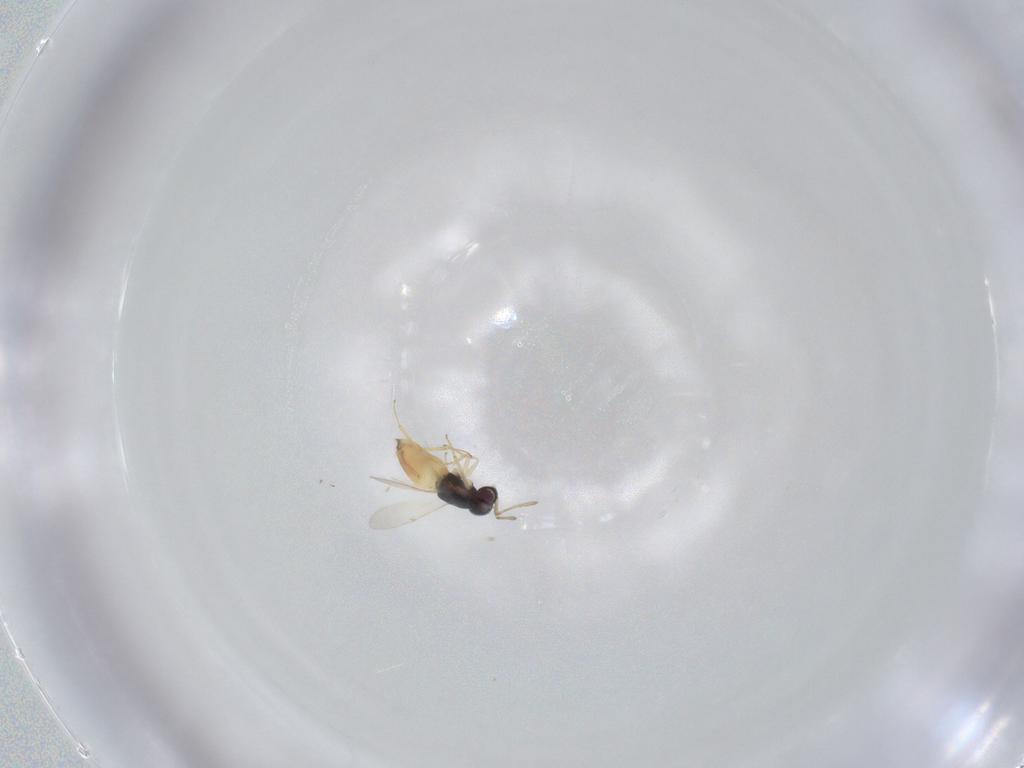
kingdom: Animalia
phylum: Arthropoda
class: Insecta
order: Hymenoptera
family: Encyrtidae
